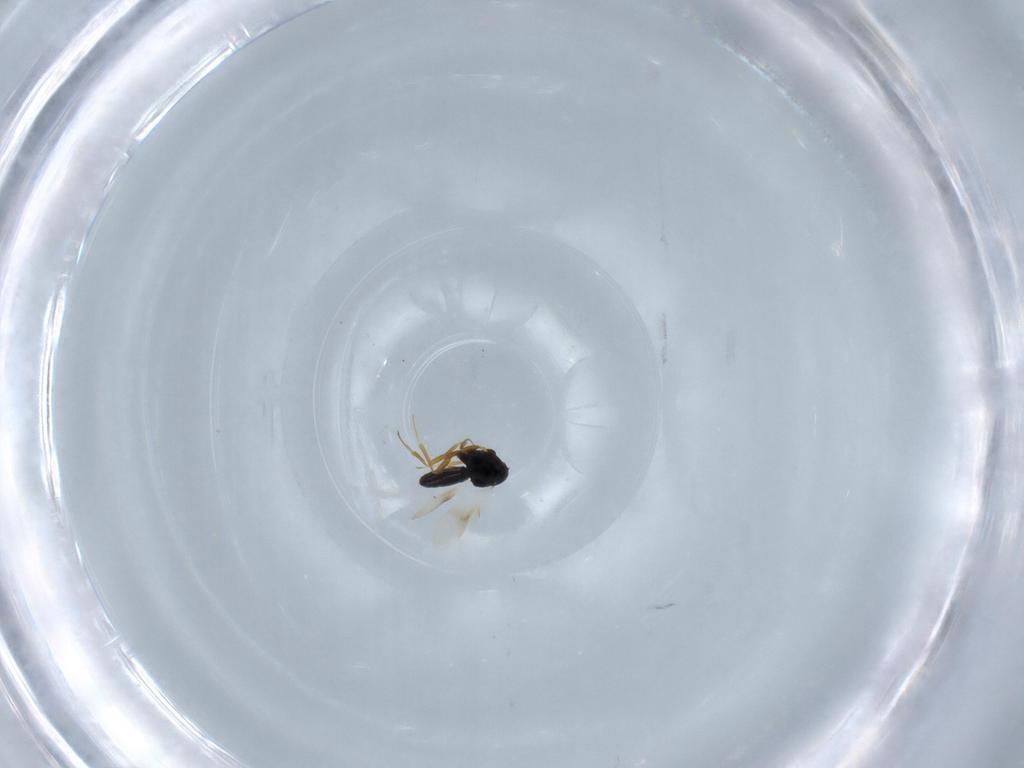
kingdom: Animalia
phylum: Arthropoda
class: Insecta
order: Hymenoptera
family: Scelionidae
